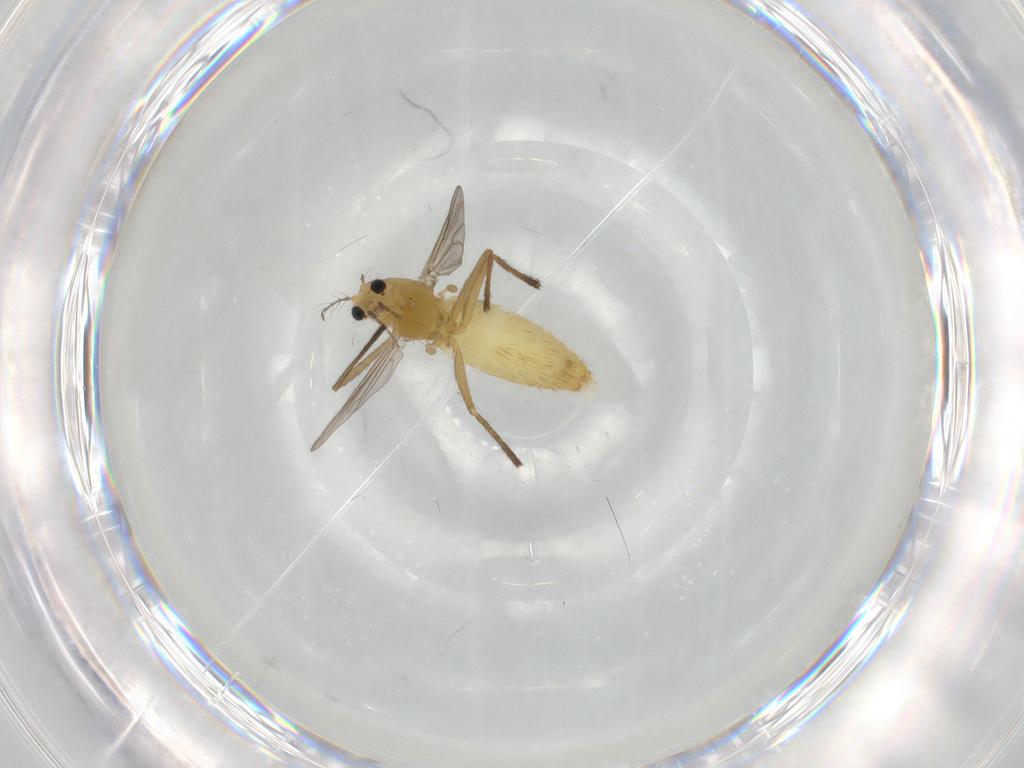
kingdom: Animalia
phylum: Arthropoda
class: Insecta
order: Diptera
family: Chironomidae
